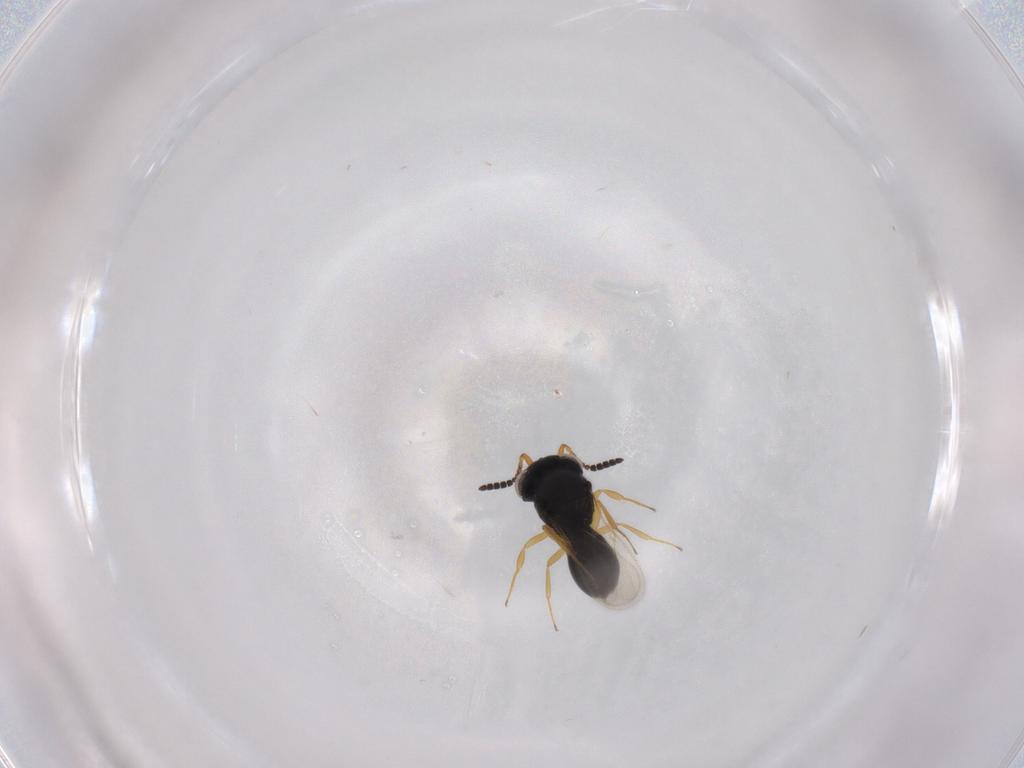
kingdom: Animalia
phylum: Arthropoda
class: Insecta
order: Hymenoptera
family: Scelionidae
